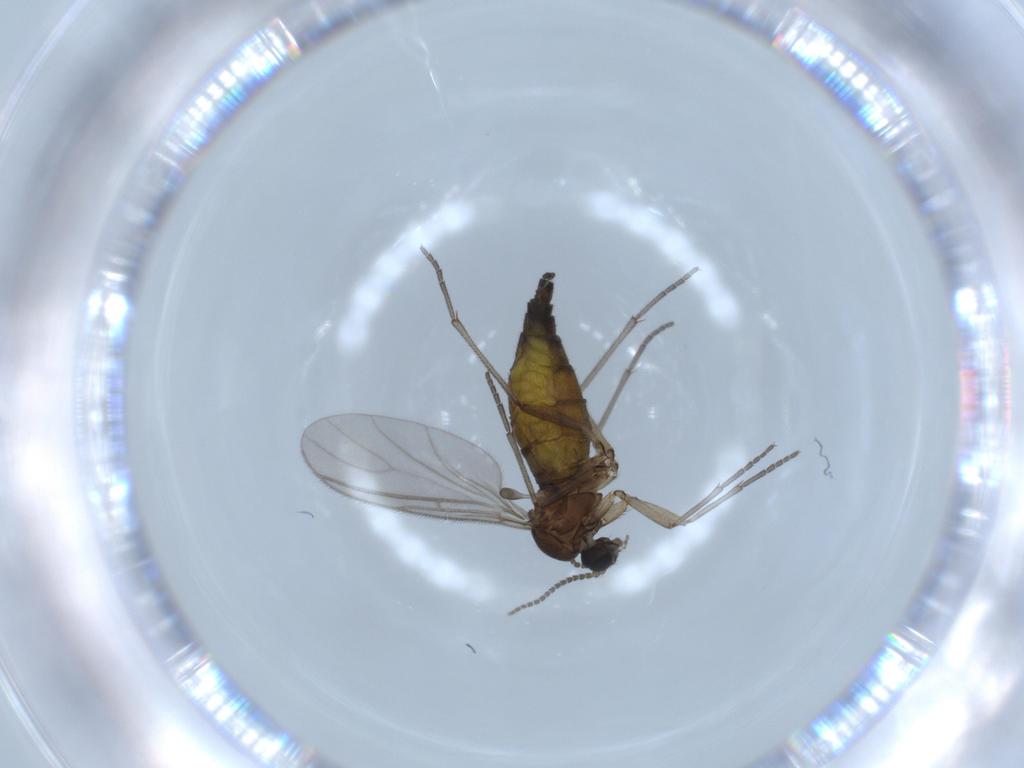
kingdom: Animalia
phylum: Arthropoda
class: Insecta
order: Diptera
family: Sciaridae
